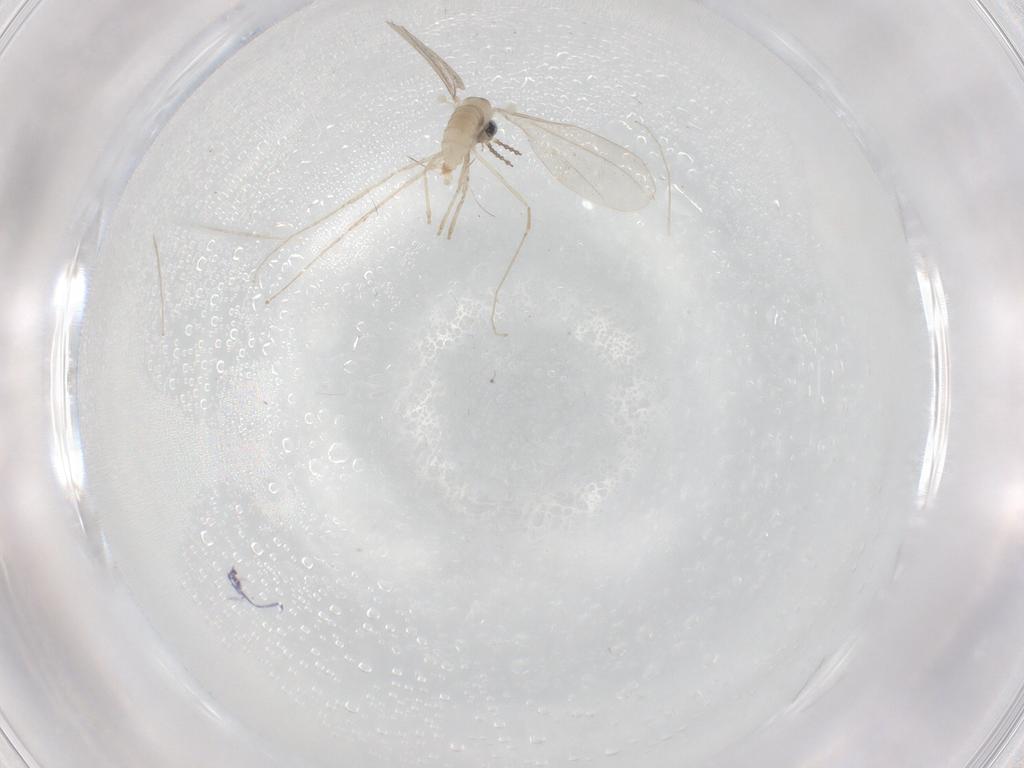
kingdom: Animalia
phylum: Arthropoda
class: Insecta
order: Diptera
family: Cecidomyiidae
